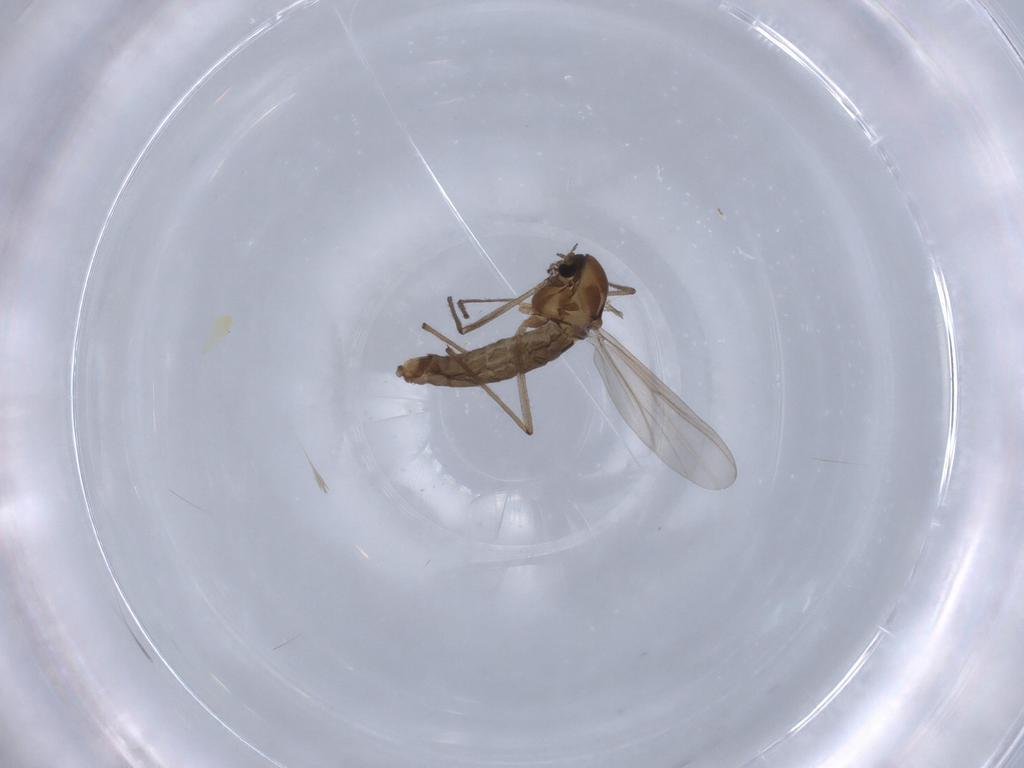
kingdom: Animalia
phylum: Arthropoda
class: Insecta
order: Diptera
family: Chironomidae
